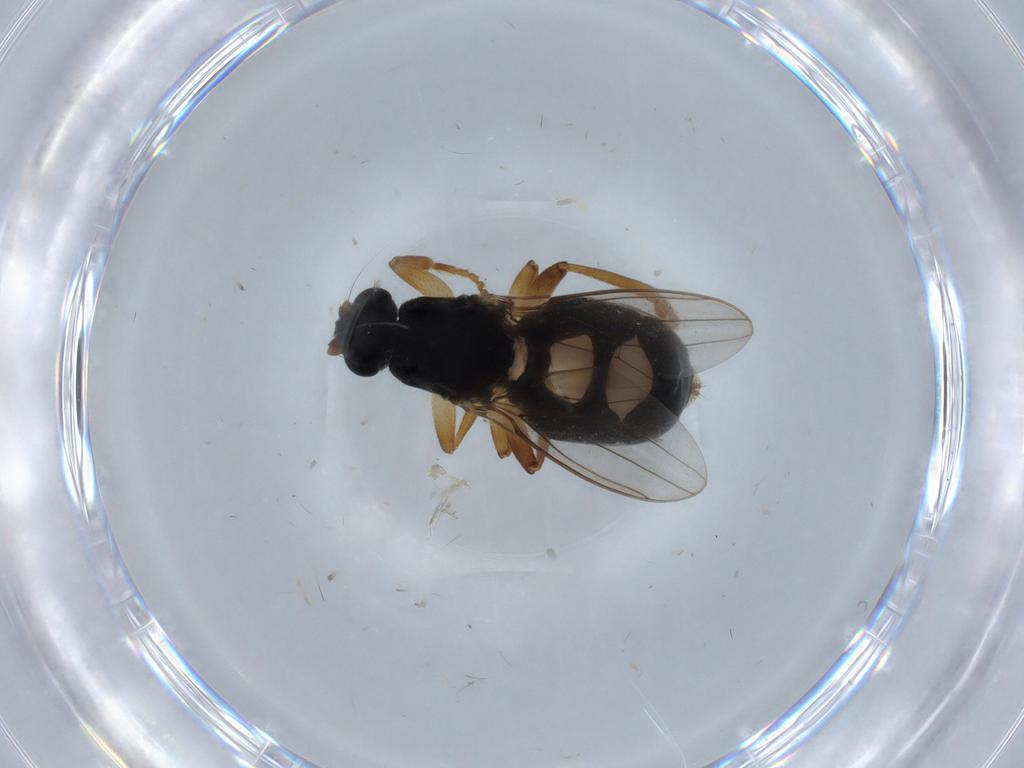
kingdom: Animalia
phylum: Arthropoda
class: Insecta
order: Diptera
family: Sphaeroceridae
